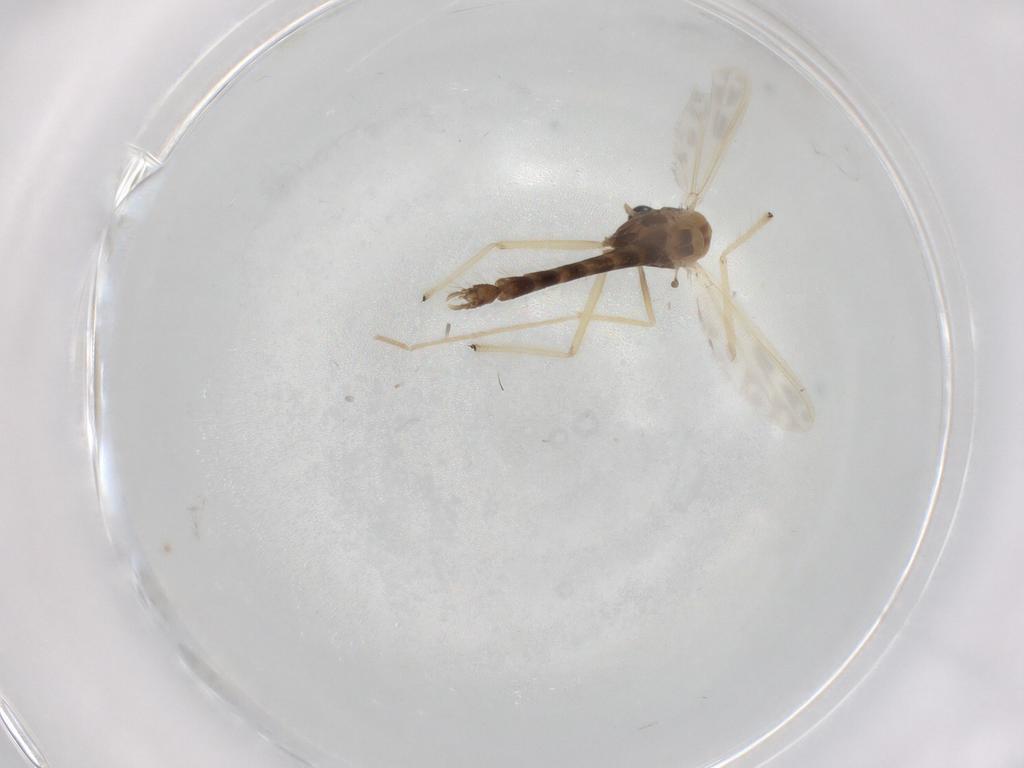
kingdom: Animalia
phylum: Arthropoda
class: Insecta
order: Diptera
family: Chironomidae
